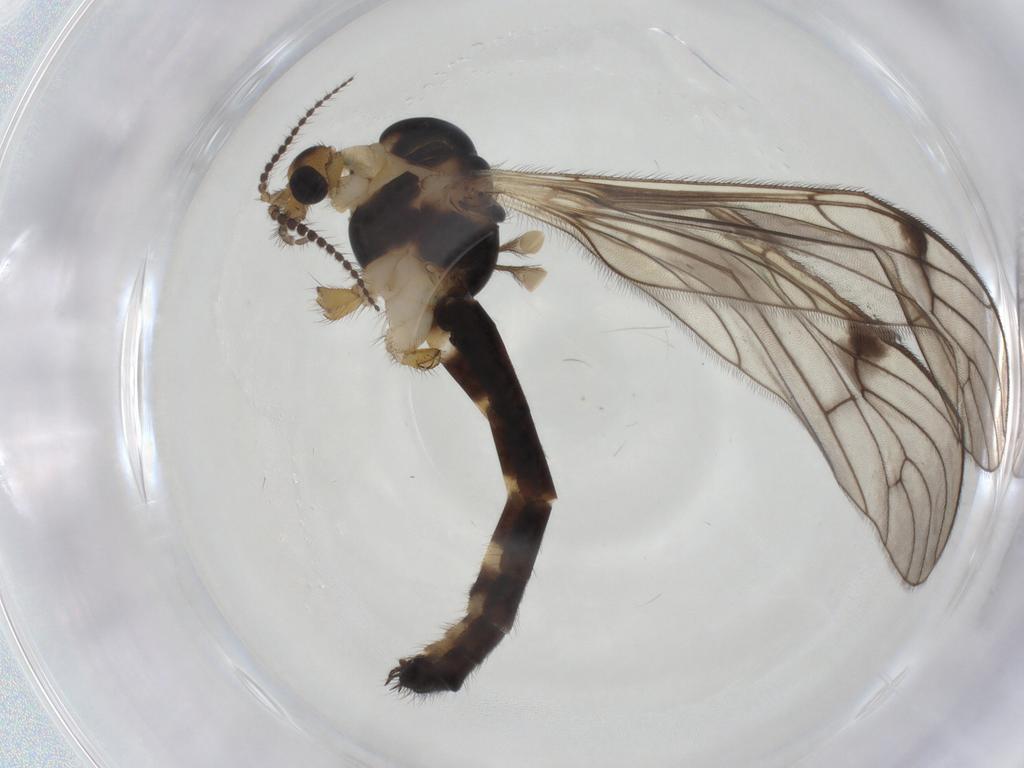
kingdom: Animalia
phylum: Arthropoda
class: Insecta
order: Diptera
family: Limoniidae
